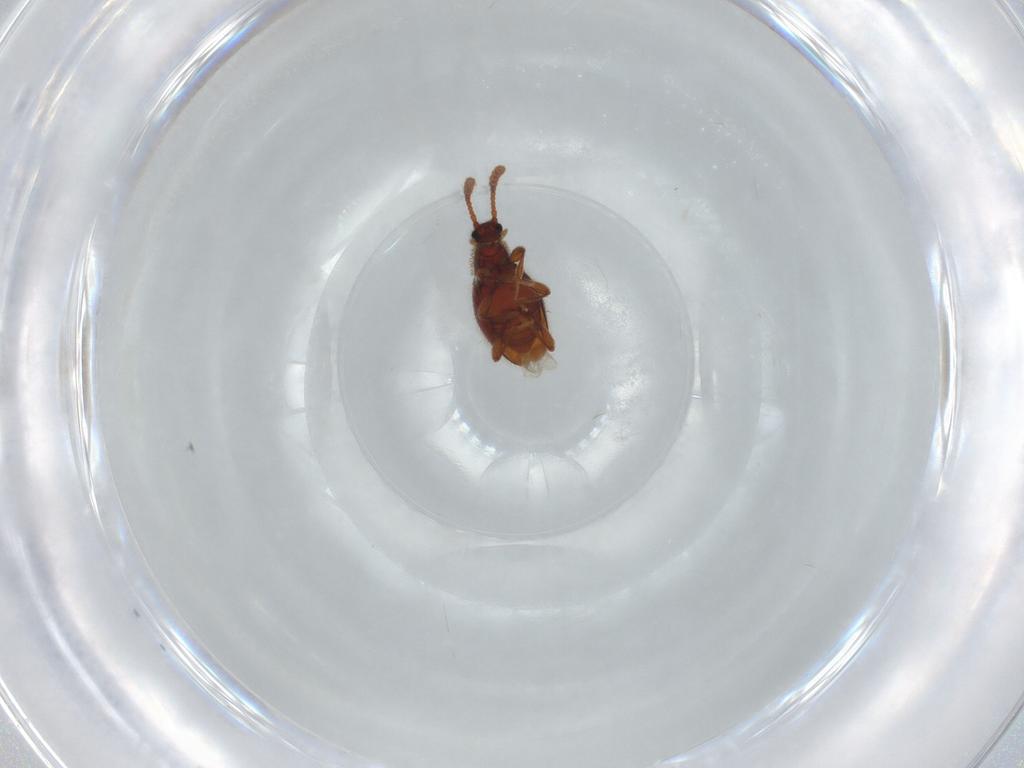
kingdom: Animalia
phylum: Arthropoda
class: Insecta
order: Coleoptera
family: Staphylinidae
